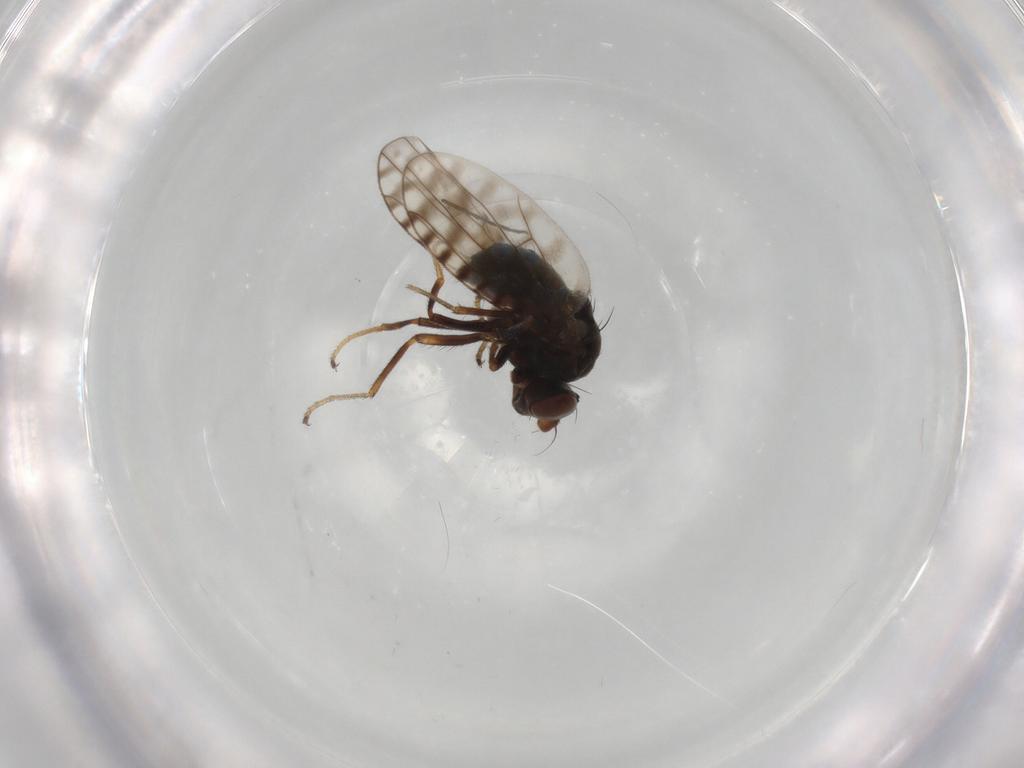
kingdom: Animalia
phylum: Arthropoda
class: Insecta
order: Diptera
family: Ephydridae
